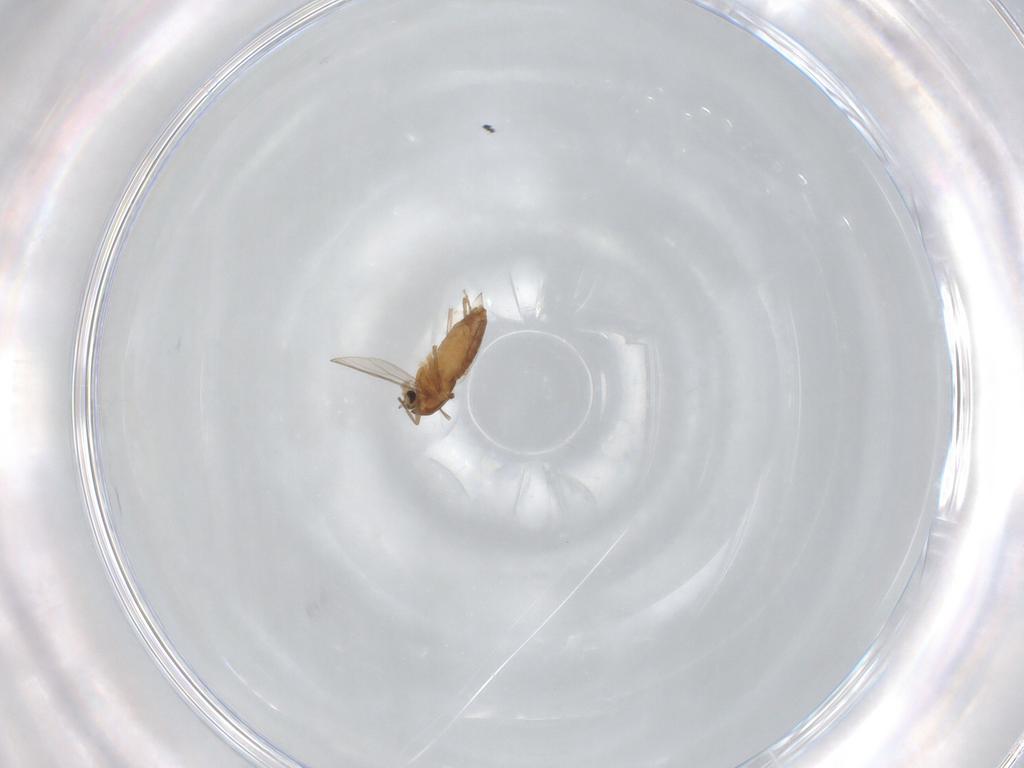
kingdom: Animalia
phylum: Arthropoda
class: Insecta
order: Diptera
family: Chironomidae
